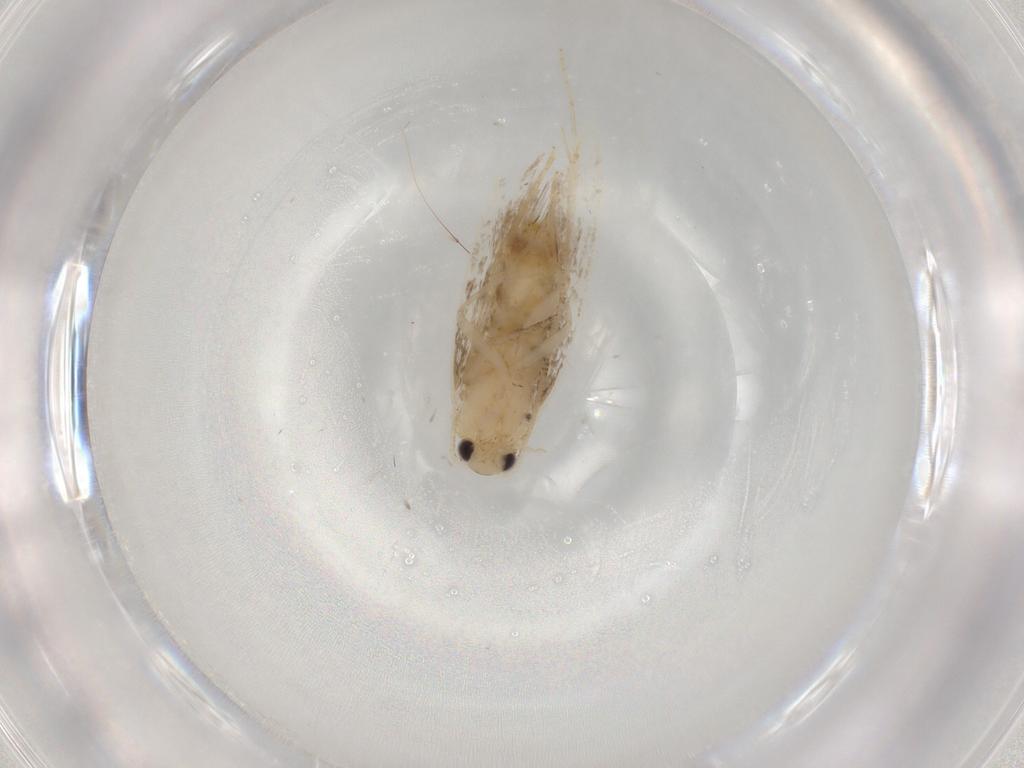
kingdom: Animalia
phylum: Arthropoda
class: Insecta
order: Lepidoptera
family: Dryadaulidae
